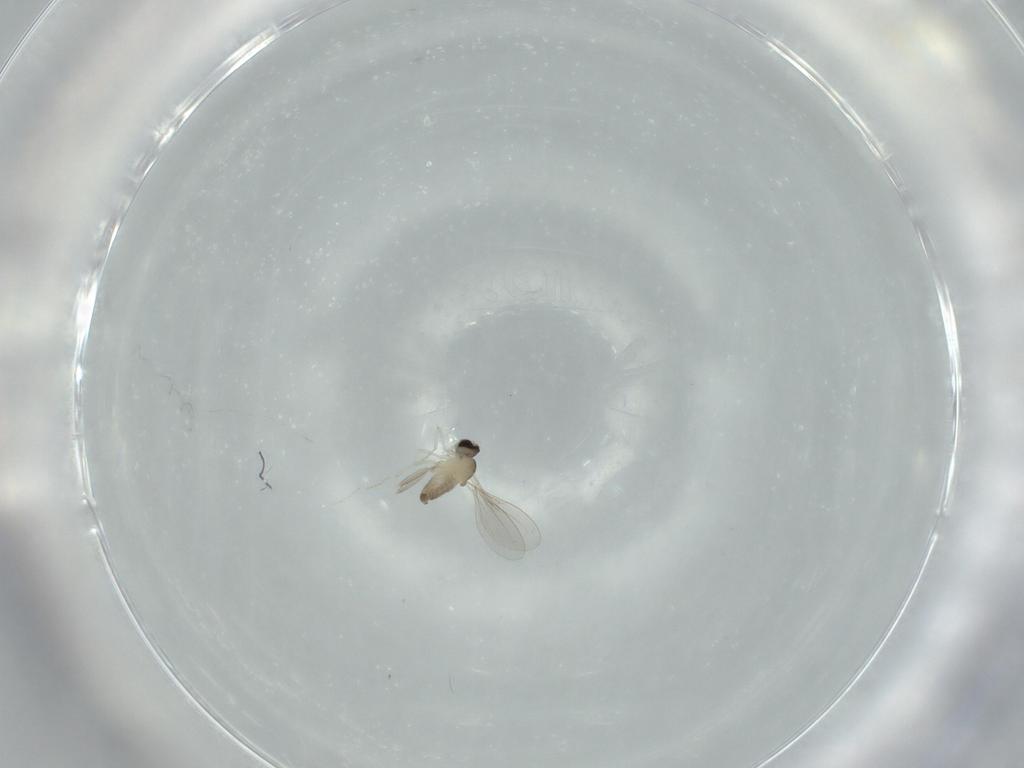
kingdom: Animalia
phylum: Arthropoda
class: Insecta
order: Diptera
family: Cecidomyiidae
